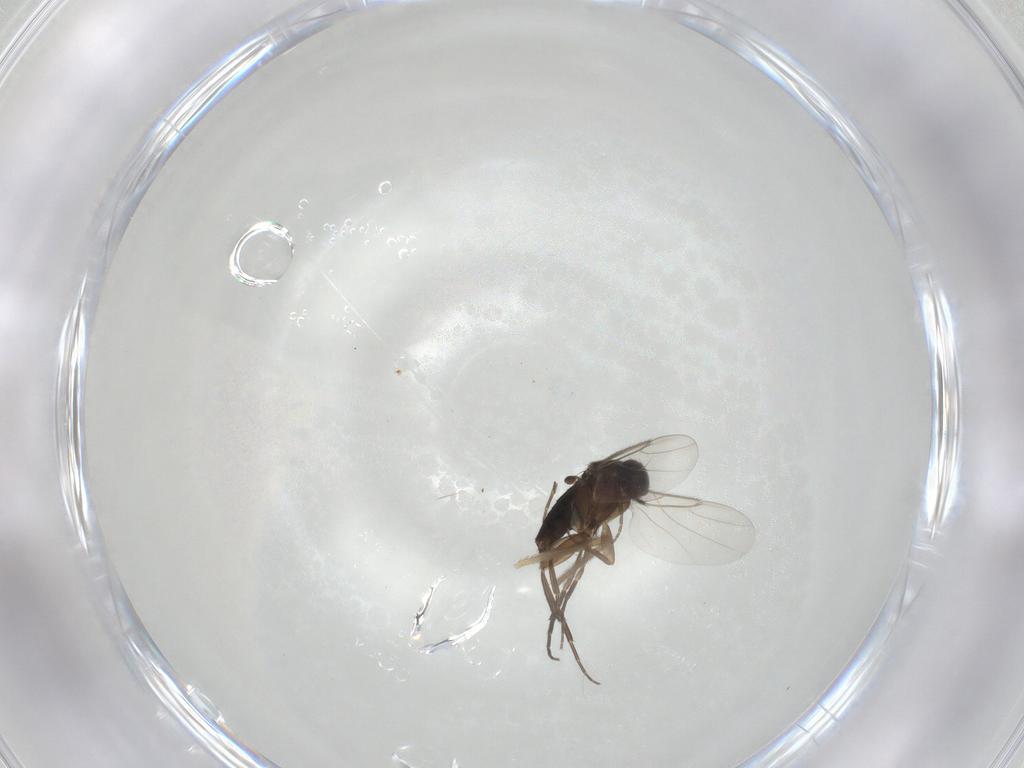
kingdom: Animalia
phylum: Arthropoda
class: Insecta
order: Diptera
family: Phoridae
